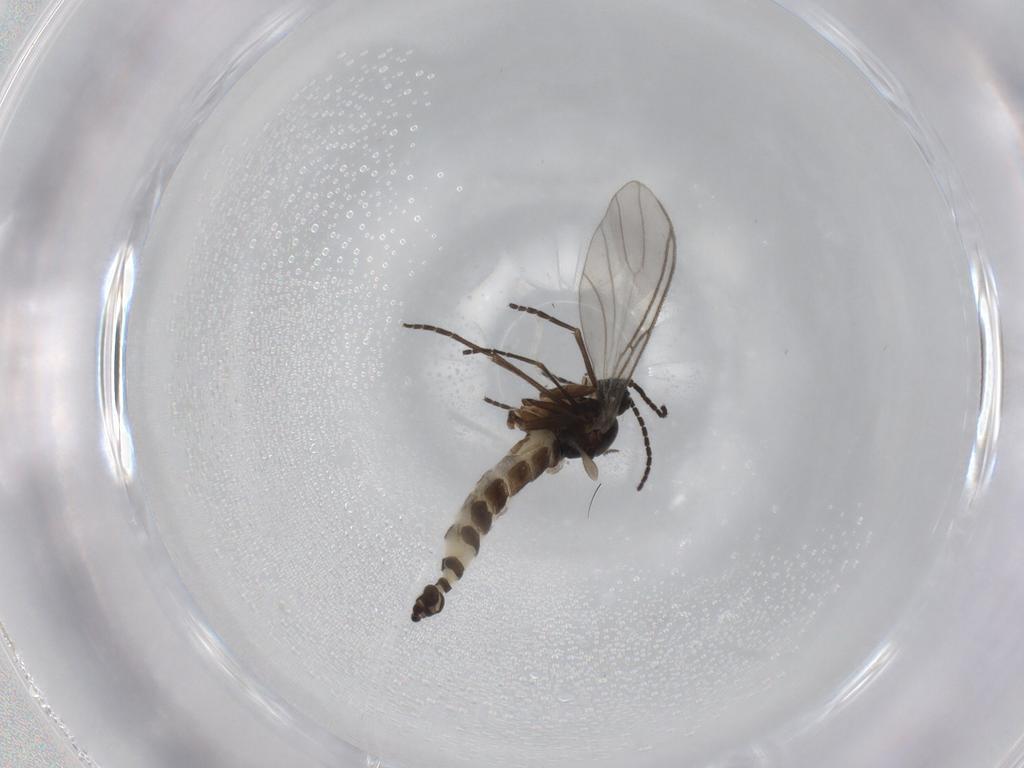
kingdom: Animalia
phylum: Arthropoda
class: Insecta
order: Diptera
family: Sciaridae
